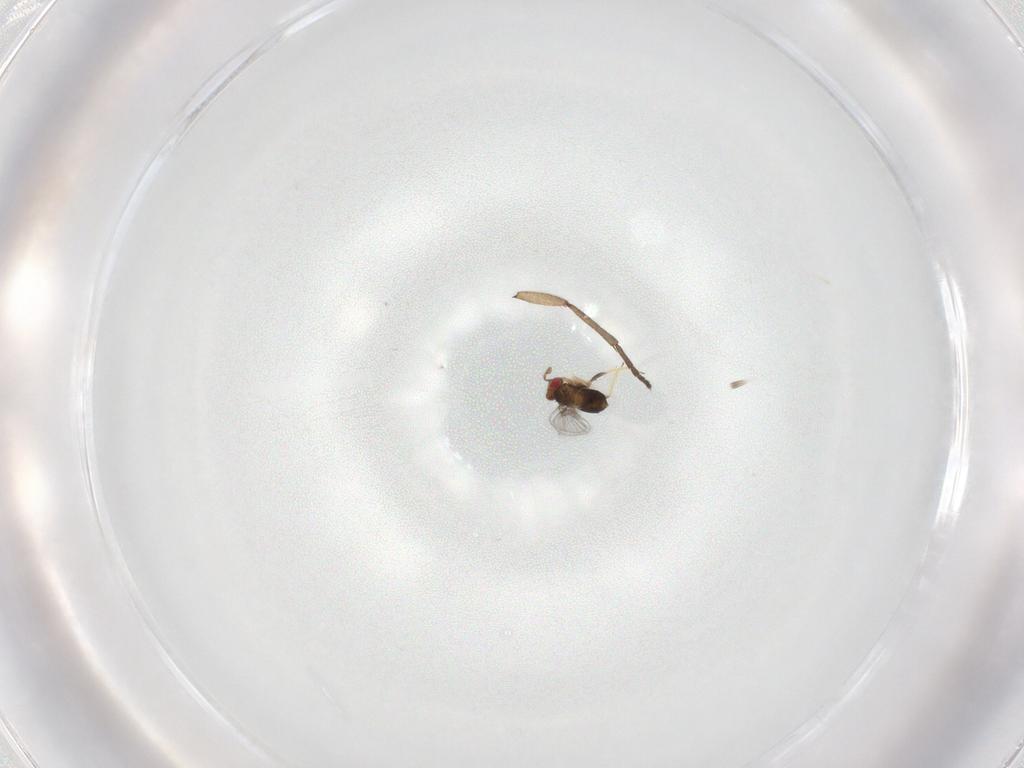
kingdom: Animalia
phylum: Arthropoda
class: Insecta
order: Hymenoptera
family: Trichogrammatidae
